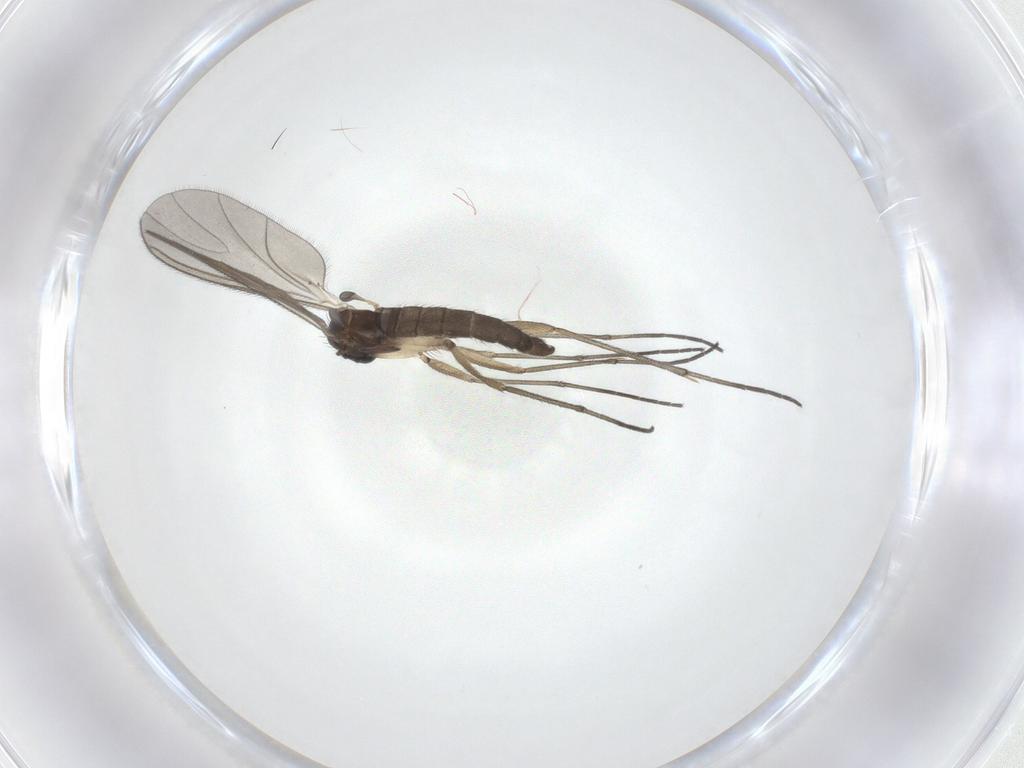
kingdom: Animalia
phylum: Arthropoda
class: Insecta
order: Diptera
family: Sciaridae
